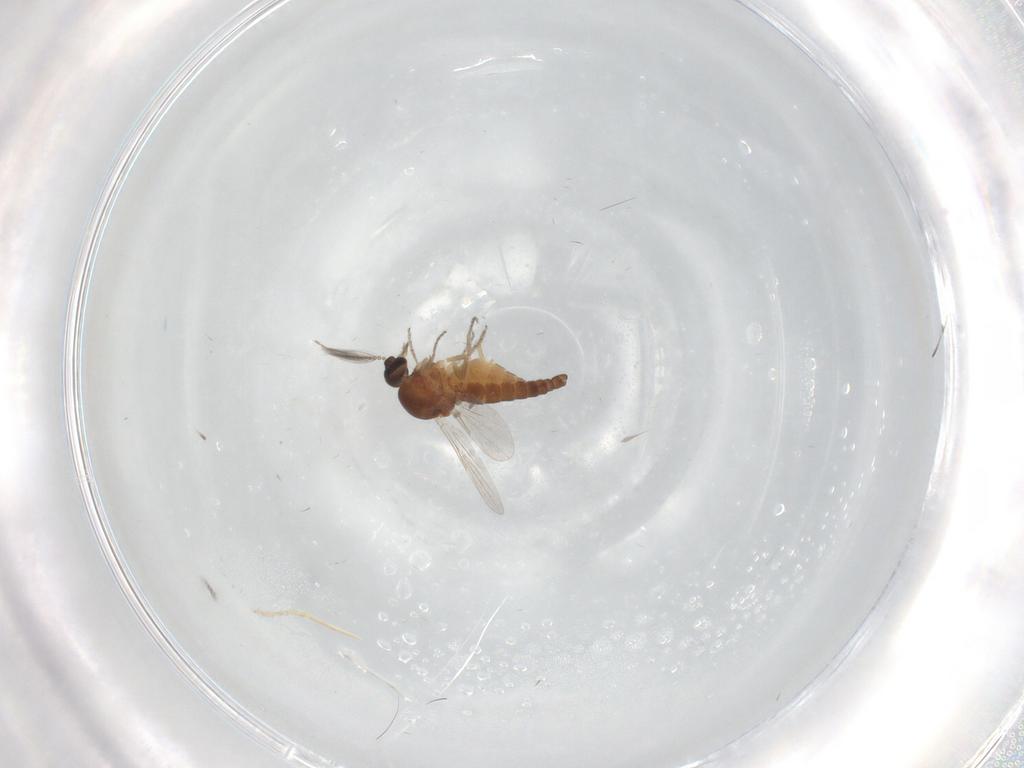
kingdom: Animalia
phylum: Arthropoda
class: Insecta
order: Diptera
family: Ceratopogonidae
